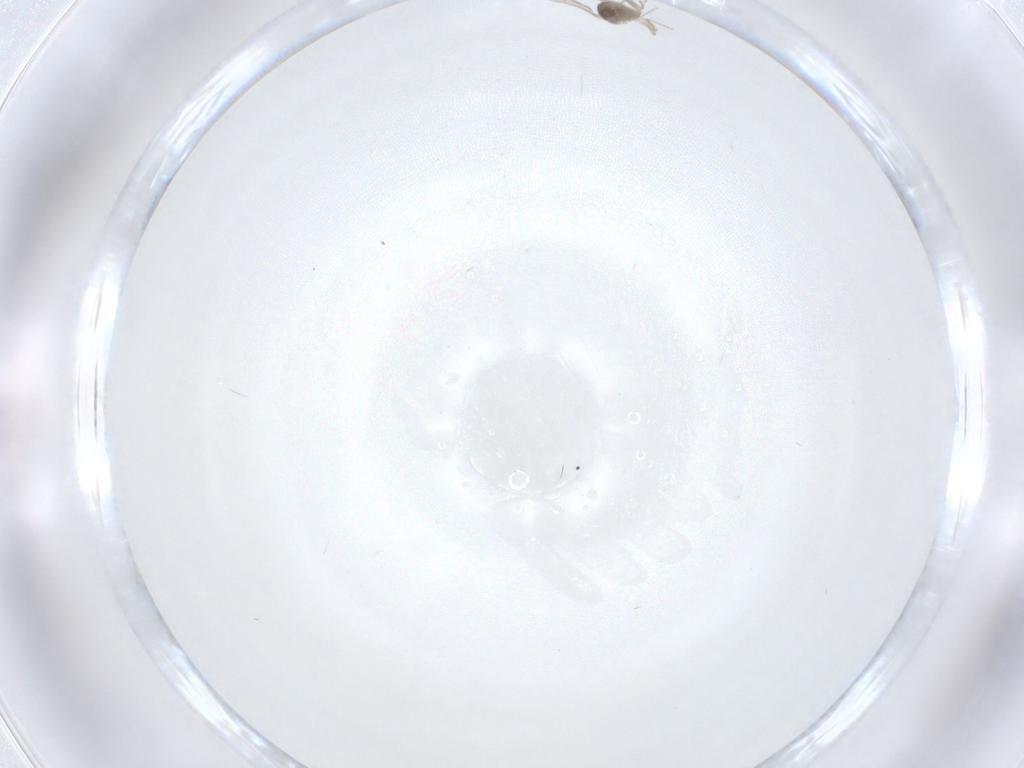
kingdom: Animalia
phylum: Arthropoda
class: Insecta
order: Diptera
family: Cecidomyiidae
